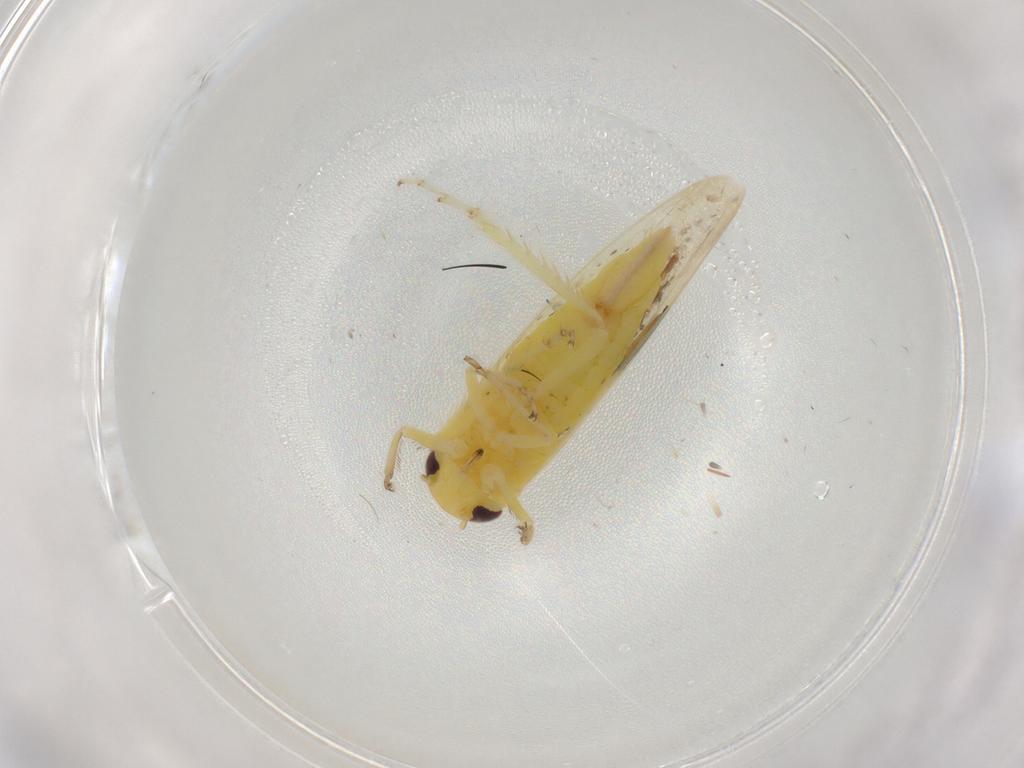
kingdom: Animalia
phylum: Arthropoda
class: Insecta
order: Hemiptera
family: Cicadellidae
